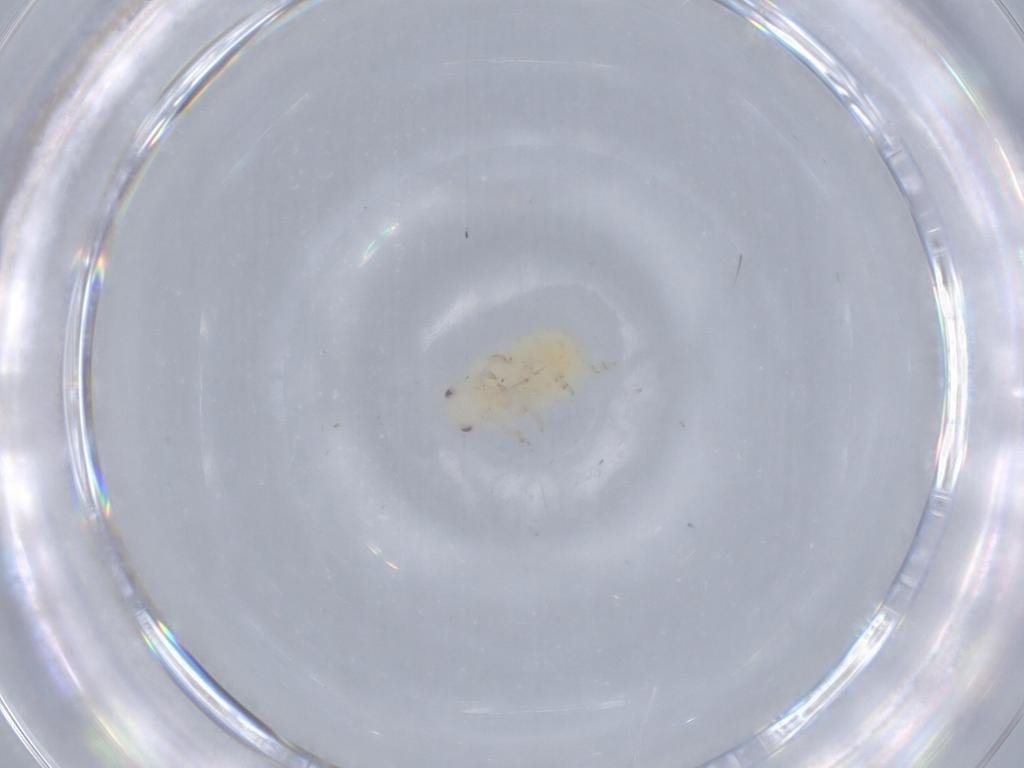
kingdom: Animalia
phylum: Arthropoda
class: Insecta
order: Hemiptera
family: Flatidae
